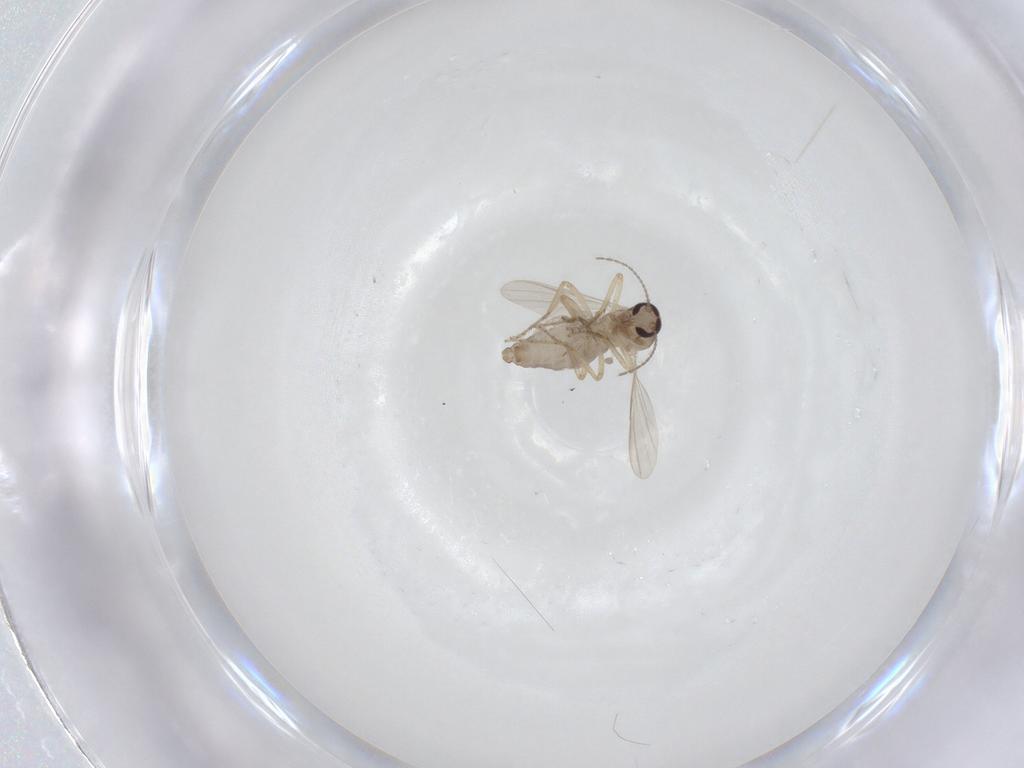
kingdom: Animalia
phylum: Arthropoda
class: Insecta
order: Diptera
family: Ceratopogonidae
